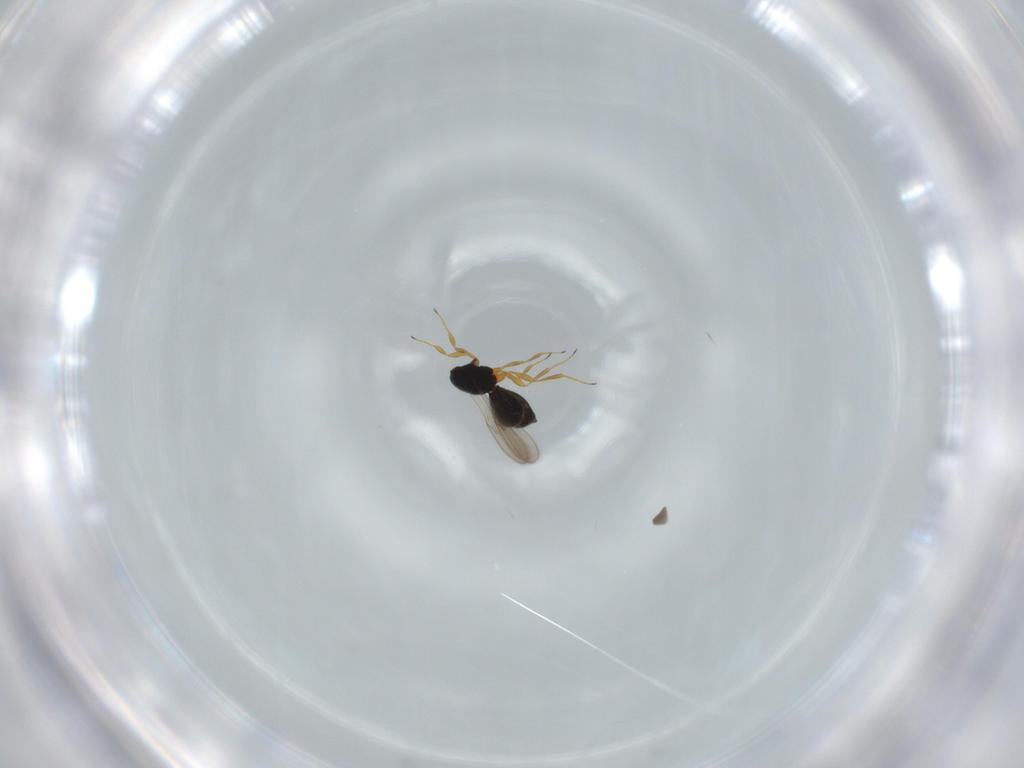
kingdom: Animalia
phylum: Arthropoda
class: Insecta
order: Hymenoptera
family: Scelionidae
